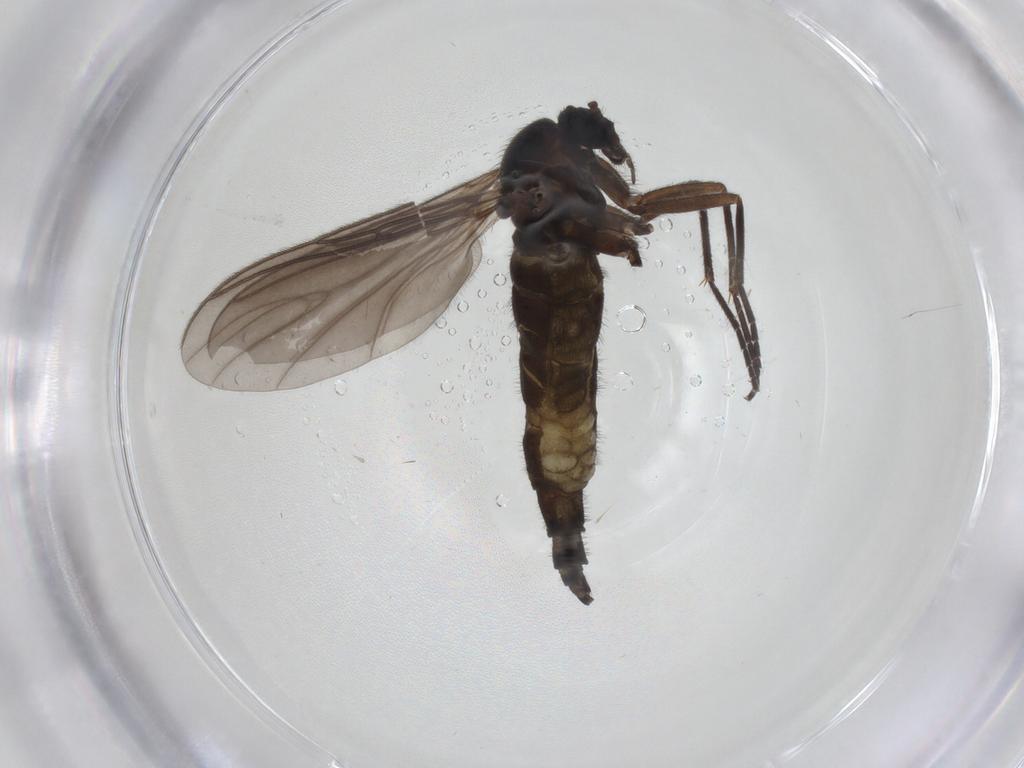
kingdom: Animalia
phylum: Arthropoda
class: Insecta
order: Diptera
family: Sciaridae
